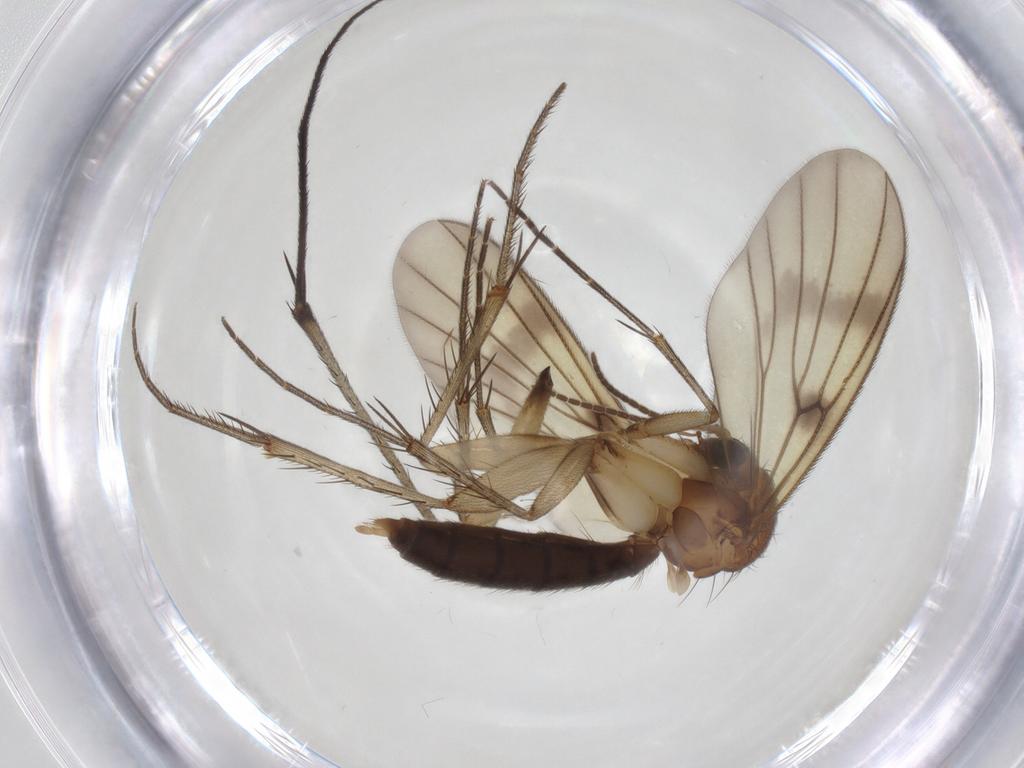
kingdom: Animalia
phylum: Arthropoda
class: Insecta
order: Diptera
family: Mycetophilidae
